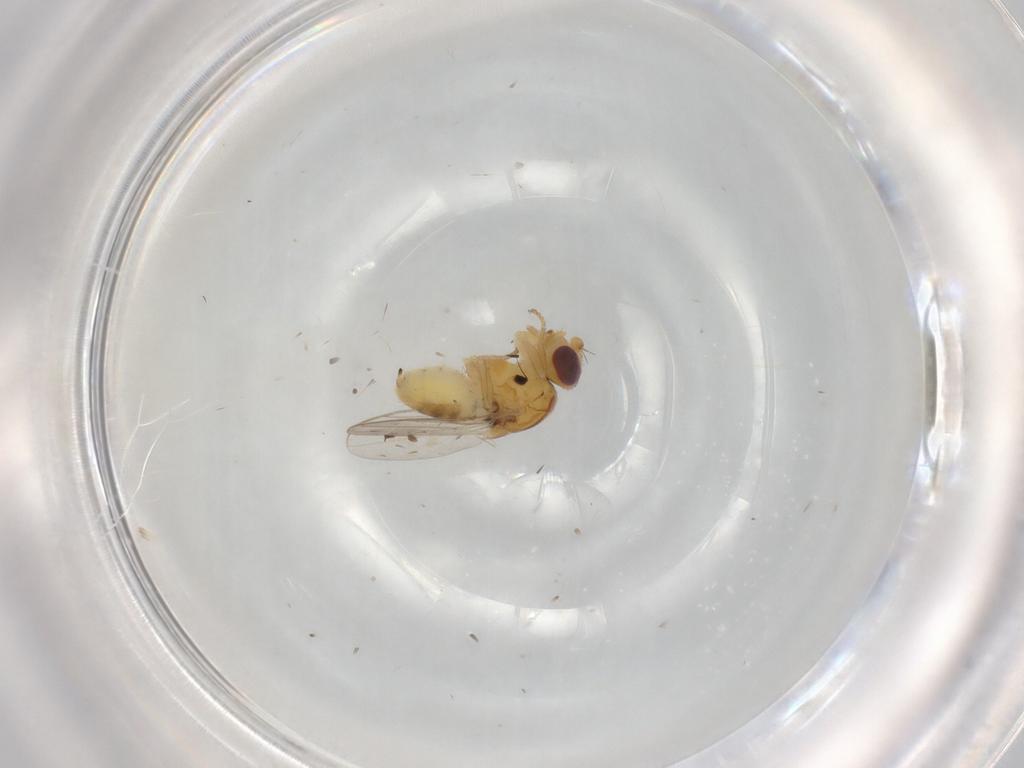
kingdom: Animalia
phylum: Arthropoda
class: Insecta
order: Diptera
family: Chloropidae
